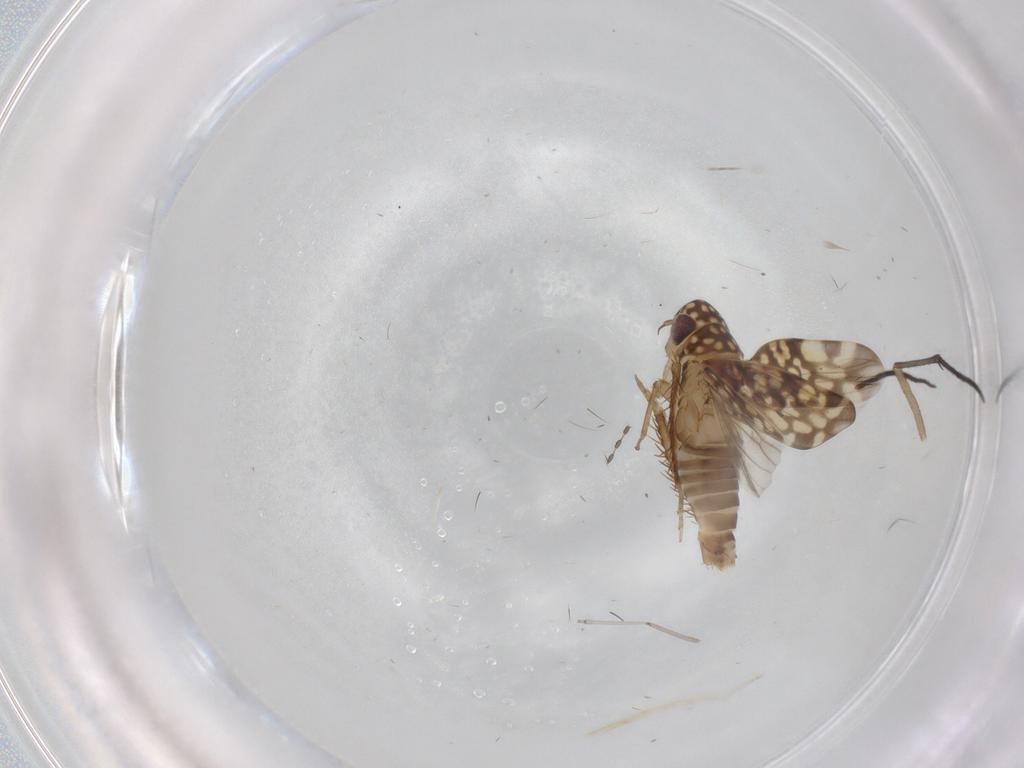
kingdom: Animalia
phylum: Arthropoda
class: Insecta
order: Hemiptera
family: Cicadellidae
